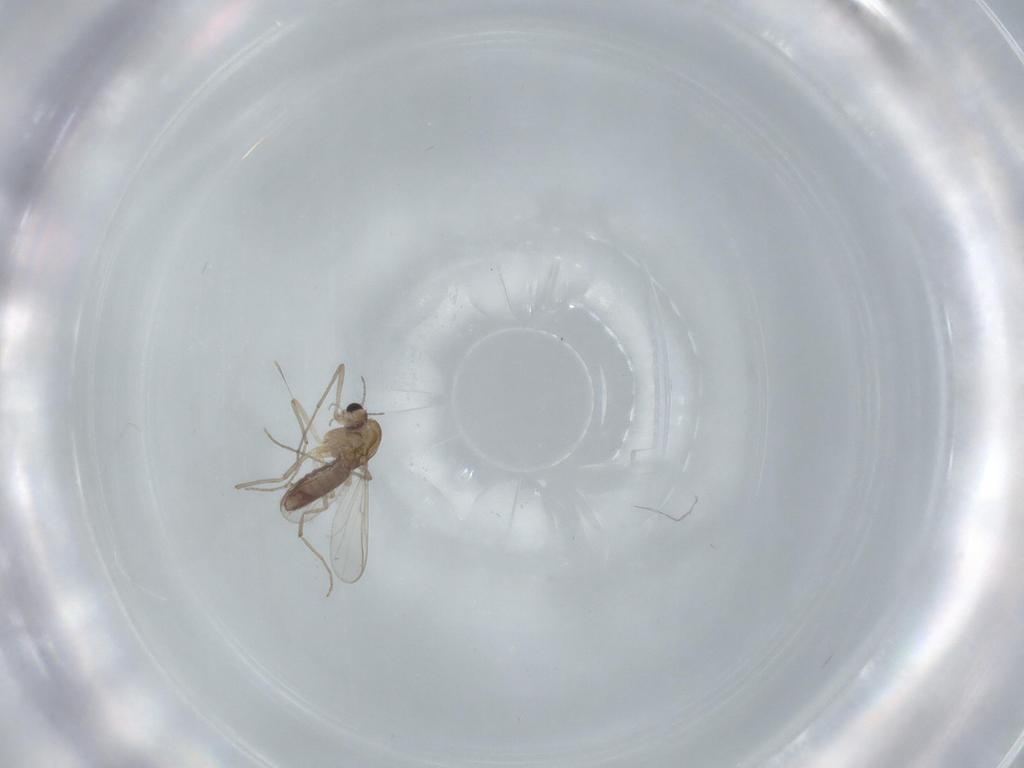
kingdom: Animalia
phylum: Arthropoda
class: Insecta
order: Diptera
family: Chironomidae
